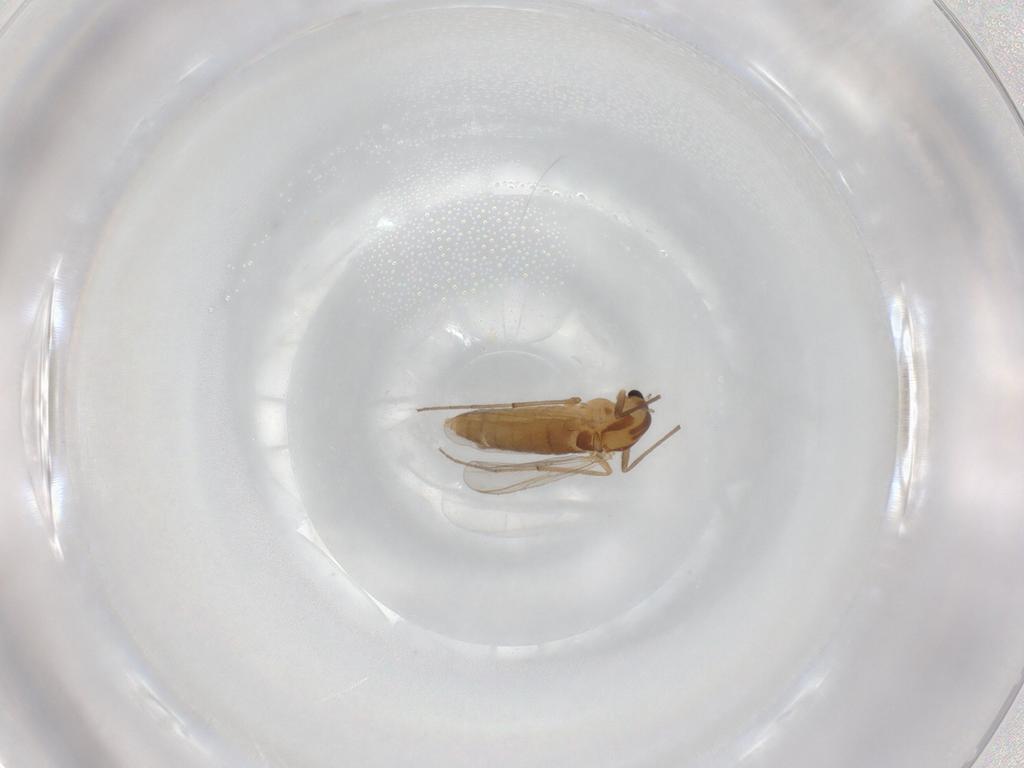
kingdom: Animalia
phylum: Arthropoda
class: Insecta
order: Diptera
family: Chironomidae
